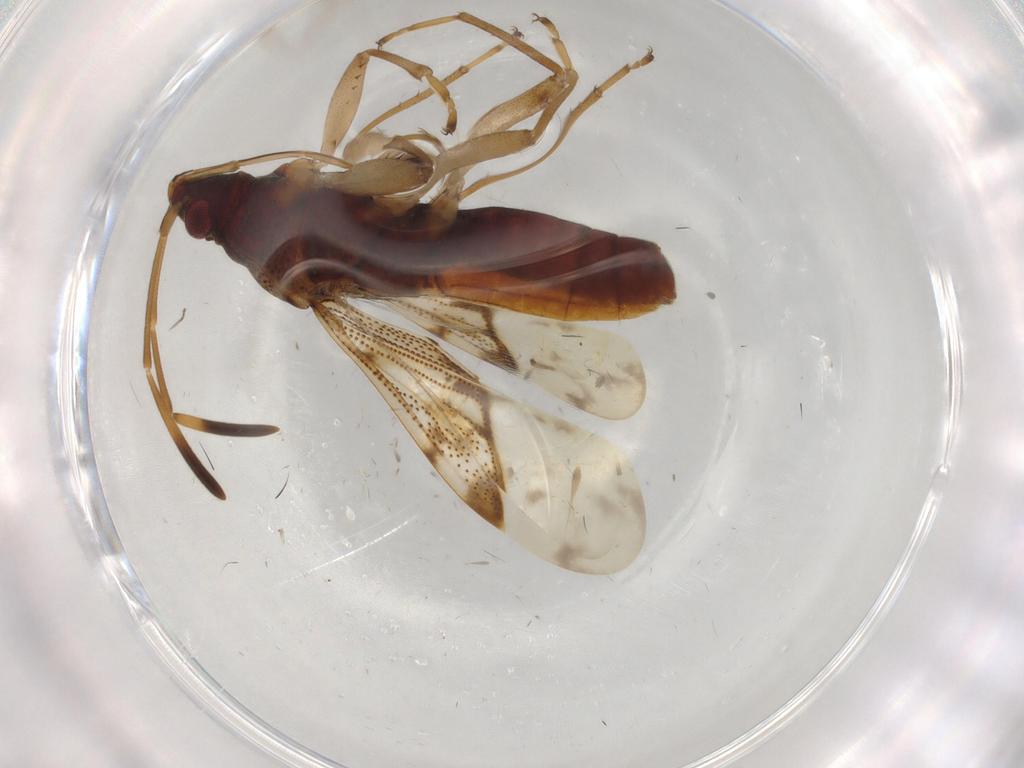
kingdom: Animalia
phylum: Arthropoda
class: Insecta
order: Hemiptera
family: Rhyparochromidae
